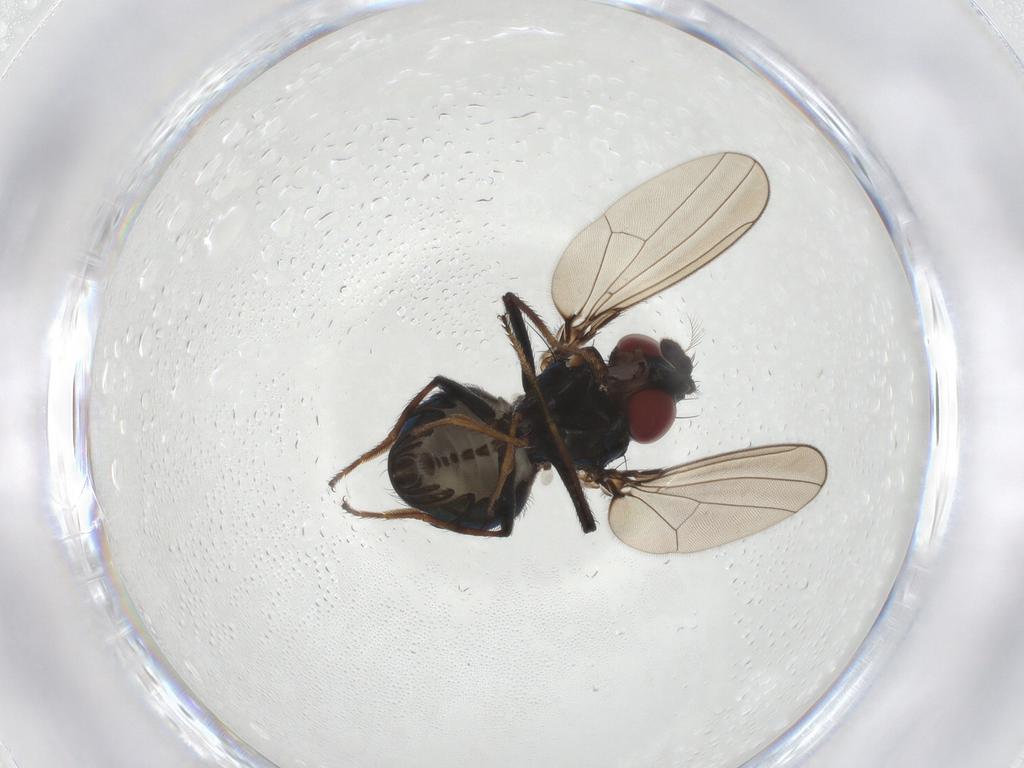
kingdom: Animalia
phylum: Arthropoda
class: Insecta
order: Diptera
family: Ephydridae
